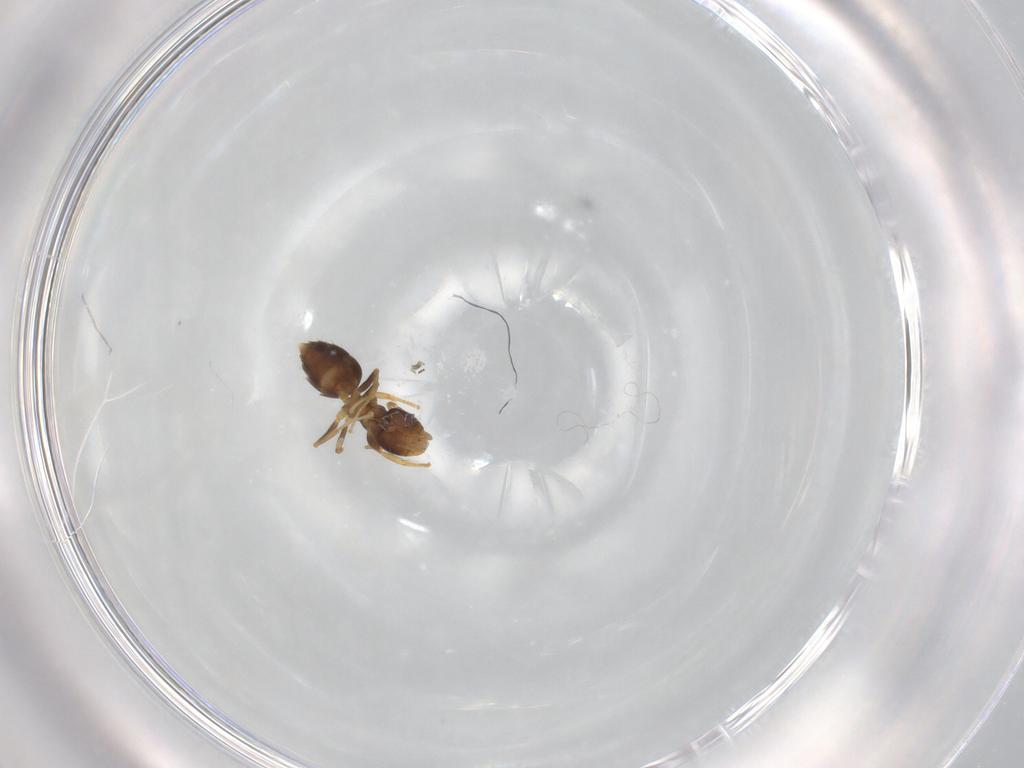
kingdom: Animalia
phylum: Arthropoda
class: Insecta
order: Hymenoptera
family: Formicidae
